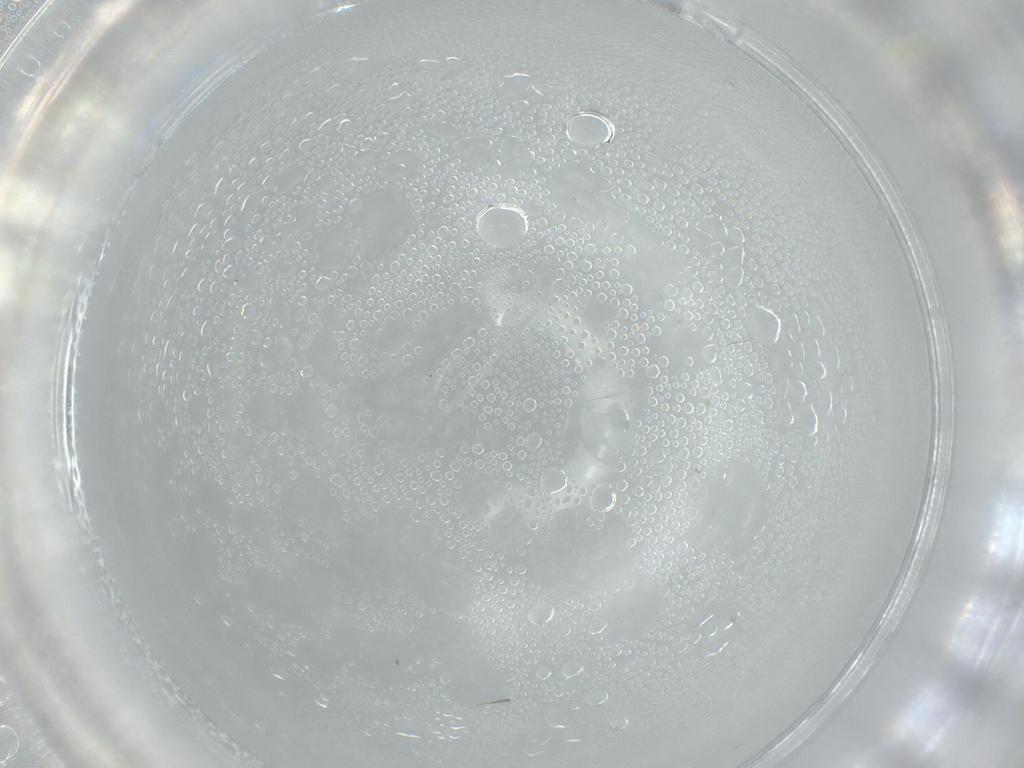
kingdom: Animalia
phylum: Arthropoda
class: Insecta
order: Diptera
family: Cecidomyiidae
